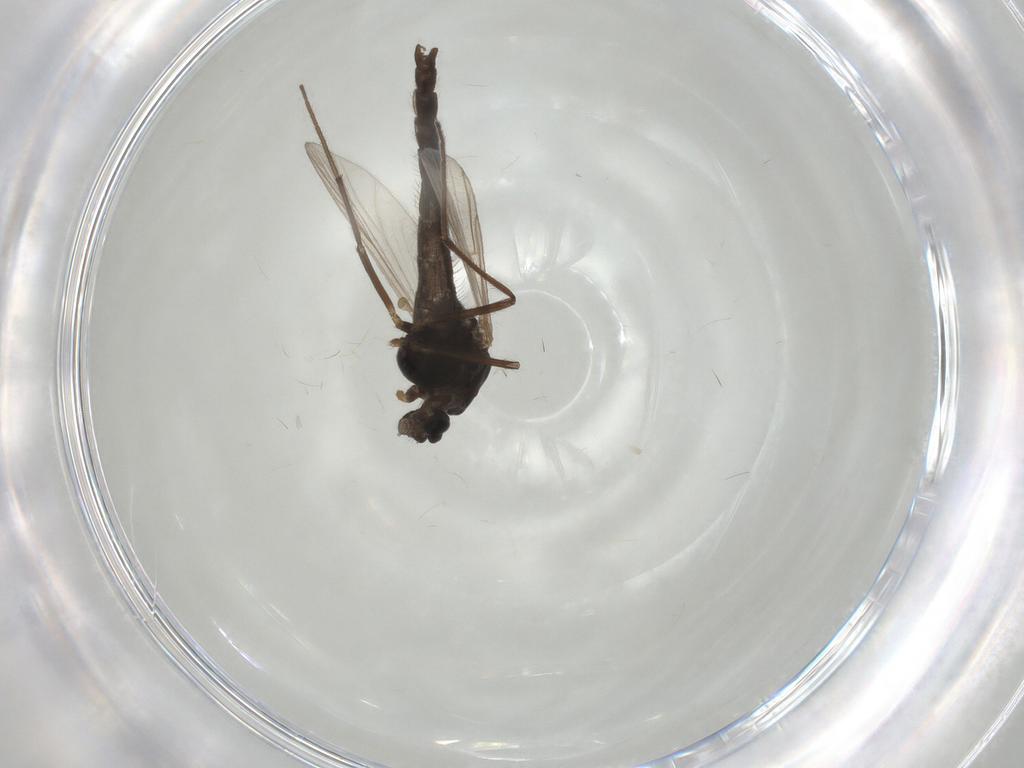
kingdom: Animalia
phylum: Arthropoda
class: Insecta
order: Diptera
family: Chironomidae
